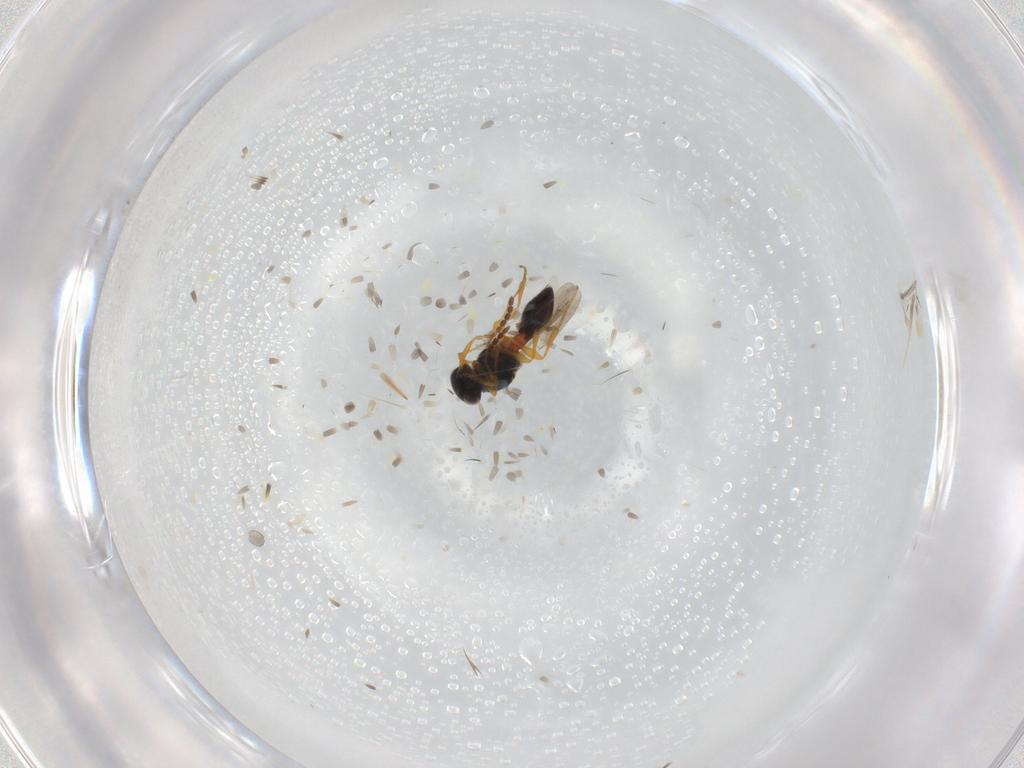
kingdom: Animalia
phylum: Arthropoda
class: Insecta
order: Hymenoptera
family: Platygastridae
